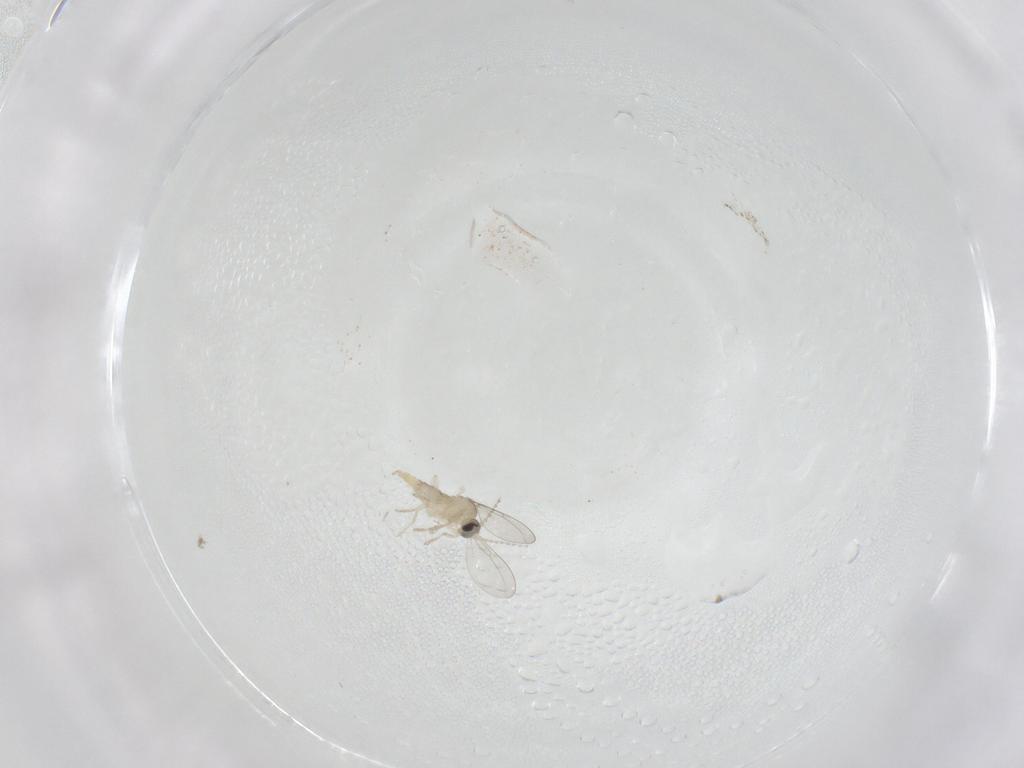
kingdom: Animalia
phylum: Arthropoda
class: Insecta
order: Diptera
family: Cecidomyiidae
